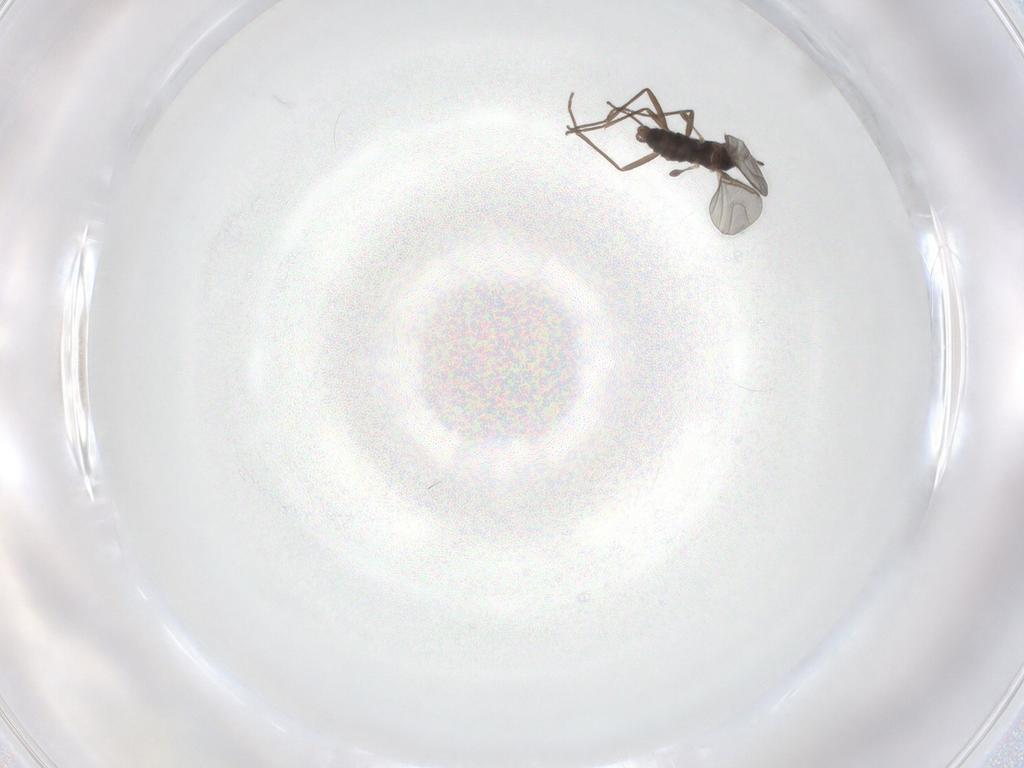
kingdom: Animalia
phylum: Arthropoda
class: Insecta
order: Diptera
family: Sciaridae
